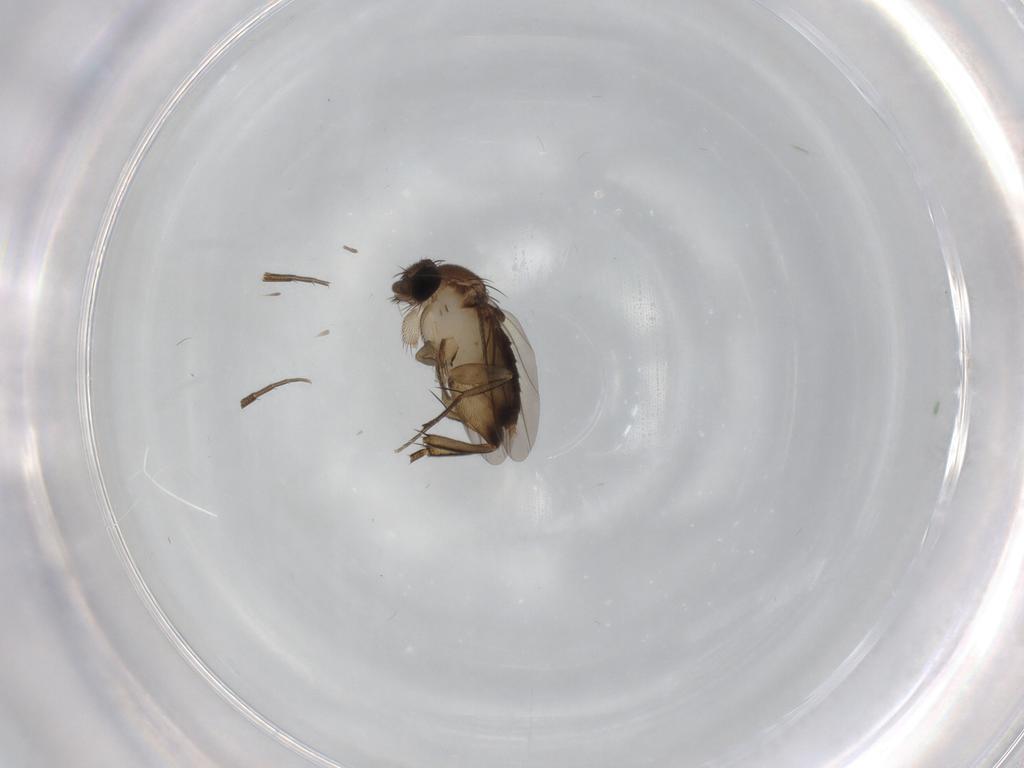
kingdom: Animalia
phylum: Arthropoda
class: Insecta
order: Diptera
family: Phoridae
